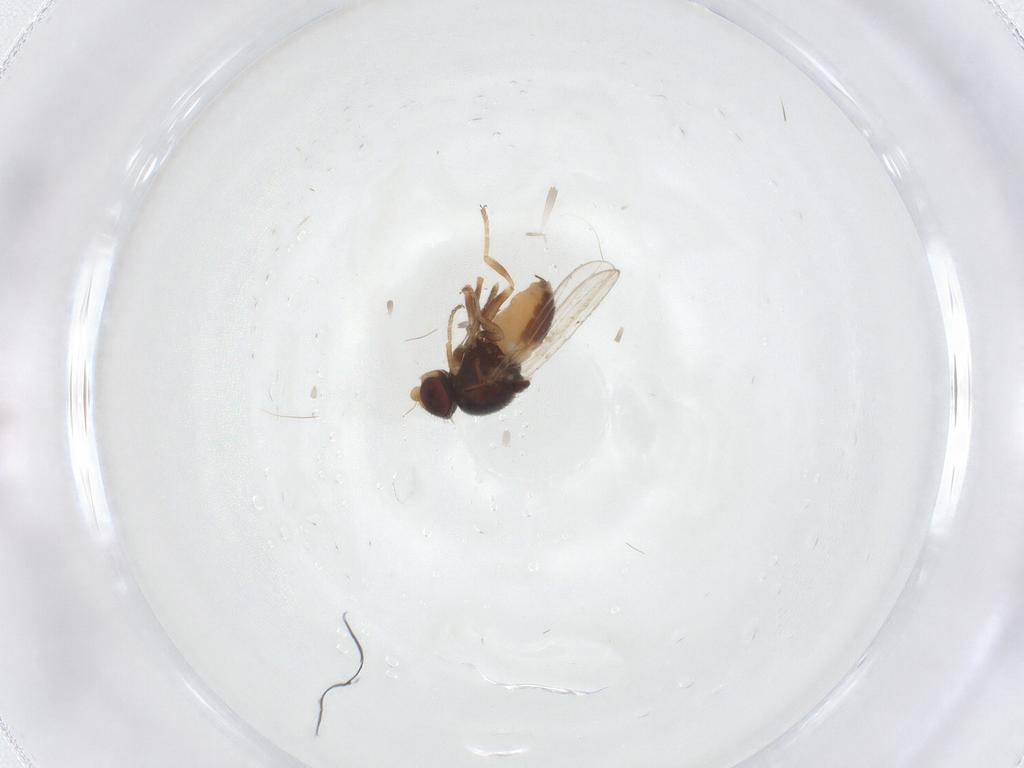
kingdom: Animalia
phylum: Arthropoda
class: Insecta
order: Diptera
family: Chloropidae
